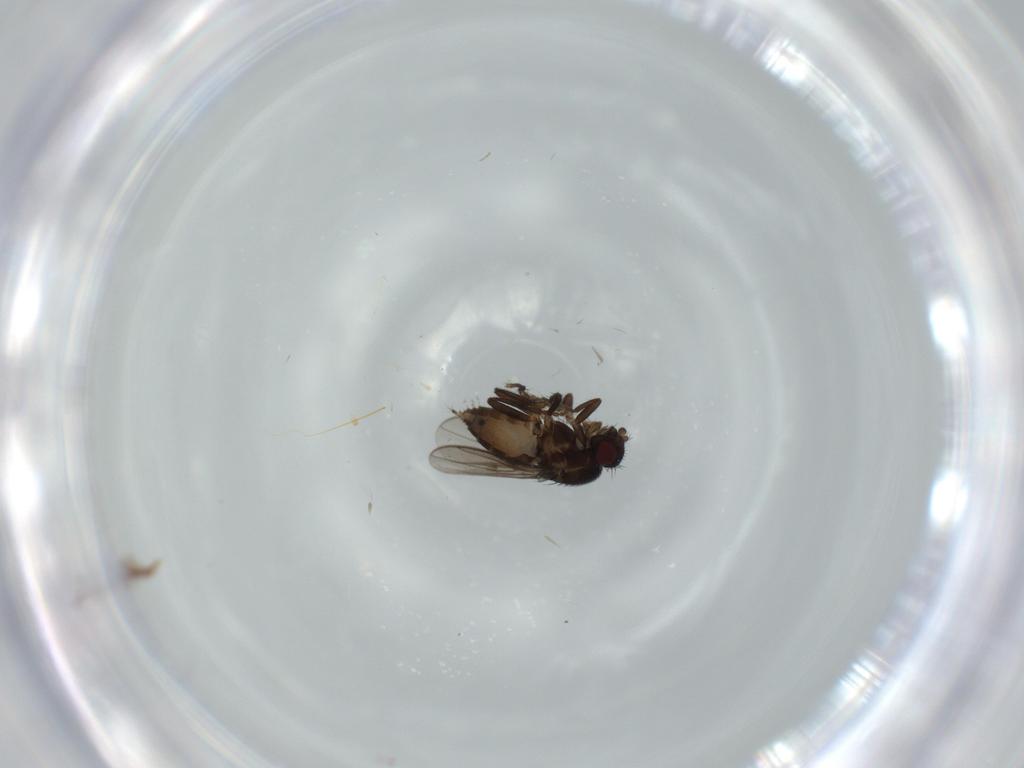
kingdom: Animalia
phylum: Arthropoda
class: Insecta
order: Diptera
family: Sphaeroceridae
